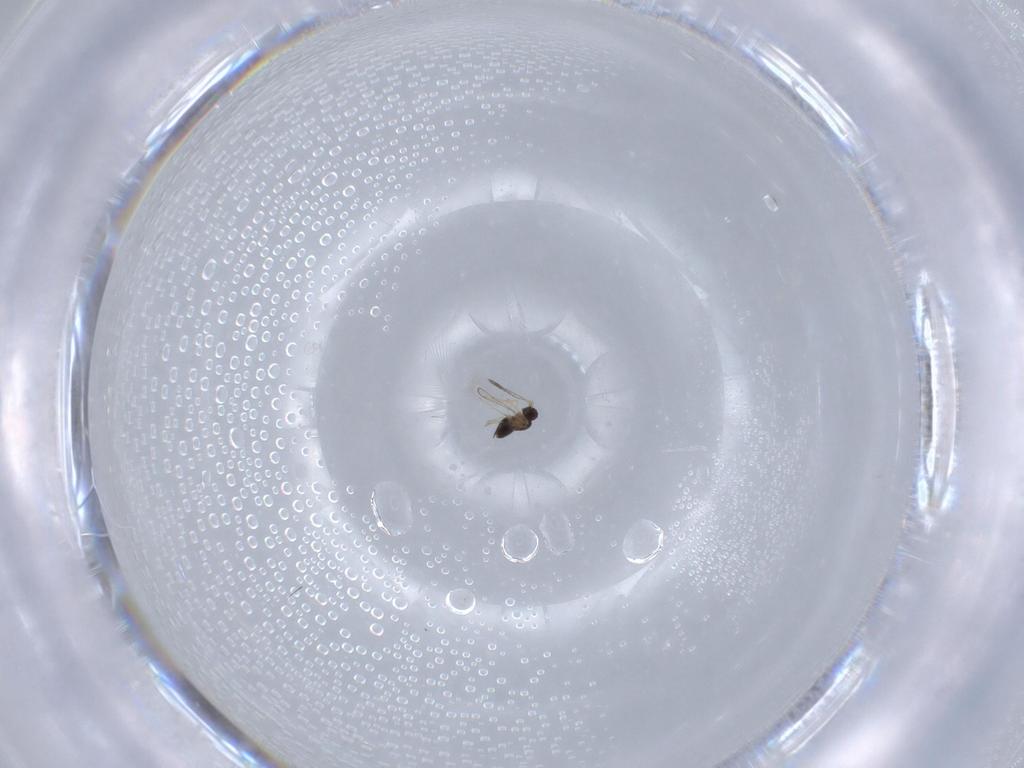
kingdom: Animalia
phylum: Arthropoda
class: Insecta
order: Hymenoptera
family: Ichneumonidae
